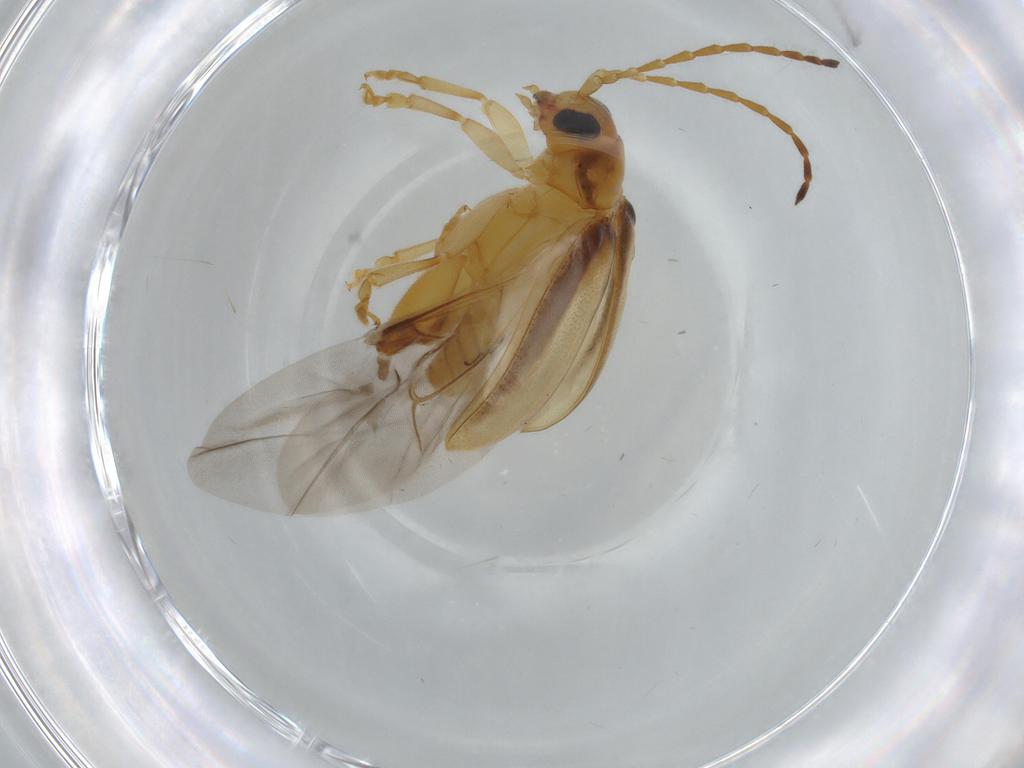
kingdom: Animalia
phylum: Arthropoda
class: Insecta
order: Coleoptera
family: Chrysomelidae
